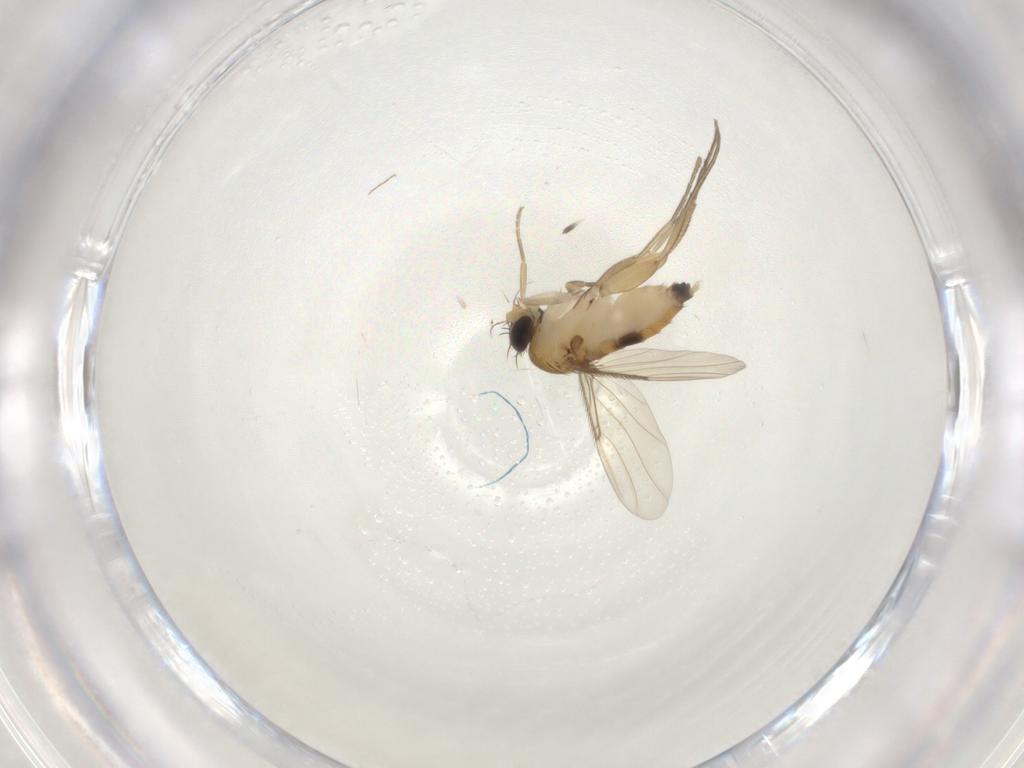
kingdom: Animalia
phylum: Arthropoda
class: Insecta
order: Diptera
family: Phoridae
